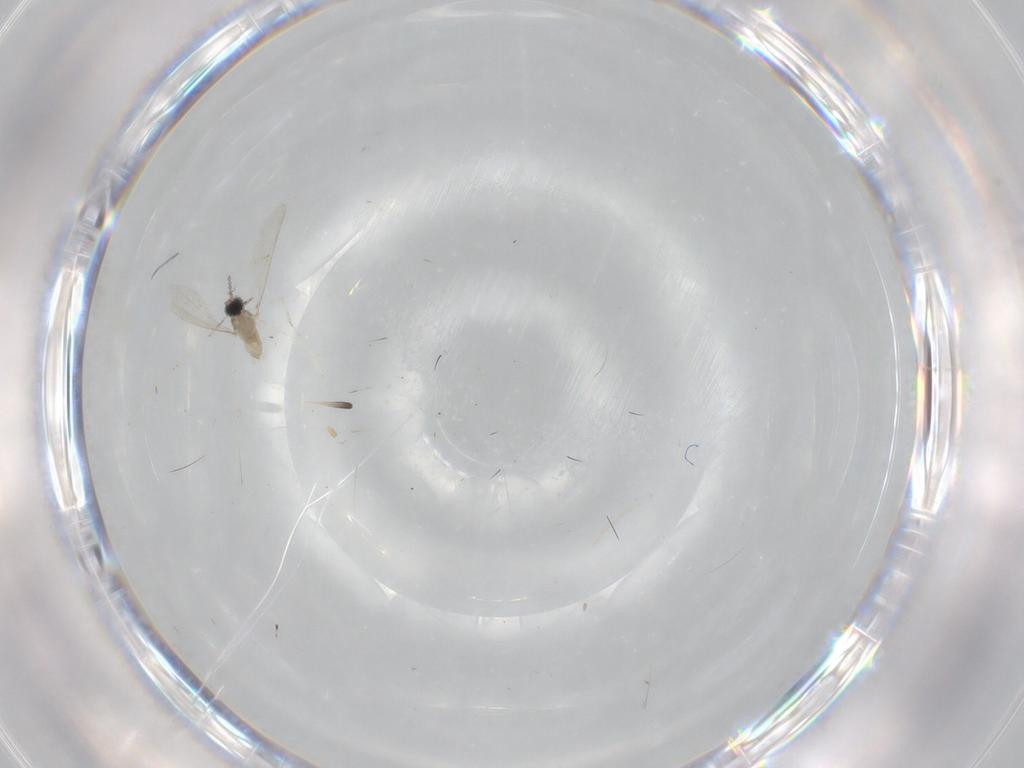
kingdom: Animalia
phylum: Arthropoda
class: Insecta
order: Diptera
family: Cecidomyiidae
